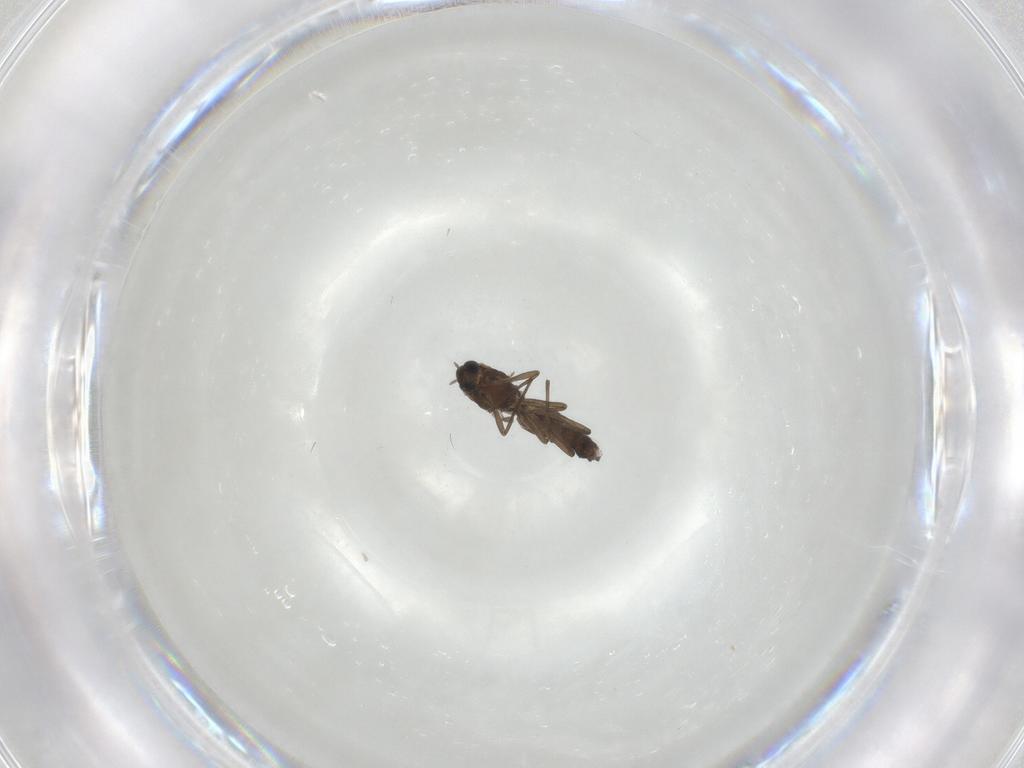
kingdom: Animalia
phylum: Arthropoda
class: Insecta
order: Diptera
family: Chironomidae
